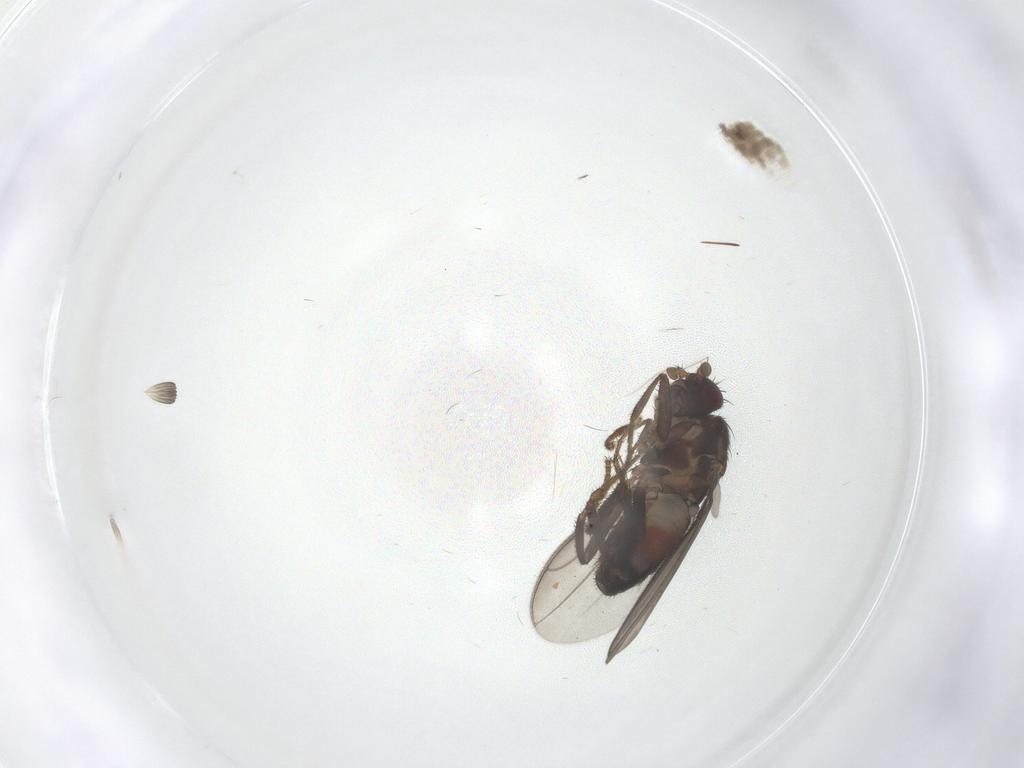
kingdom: Animalia
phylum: Arthropoda
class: Insecta
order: Diptera
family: Sphaeroceridae
